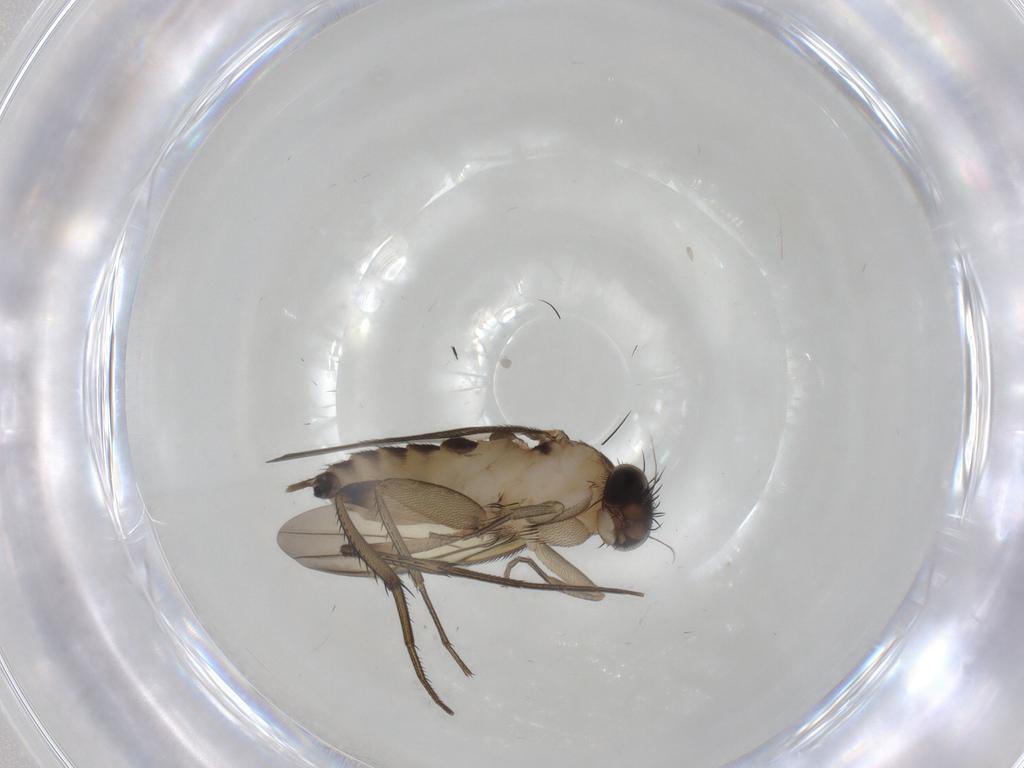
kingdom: Animalia
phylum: Arthropoda
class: Insecta
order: Diptera
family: Phoridae
